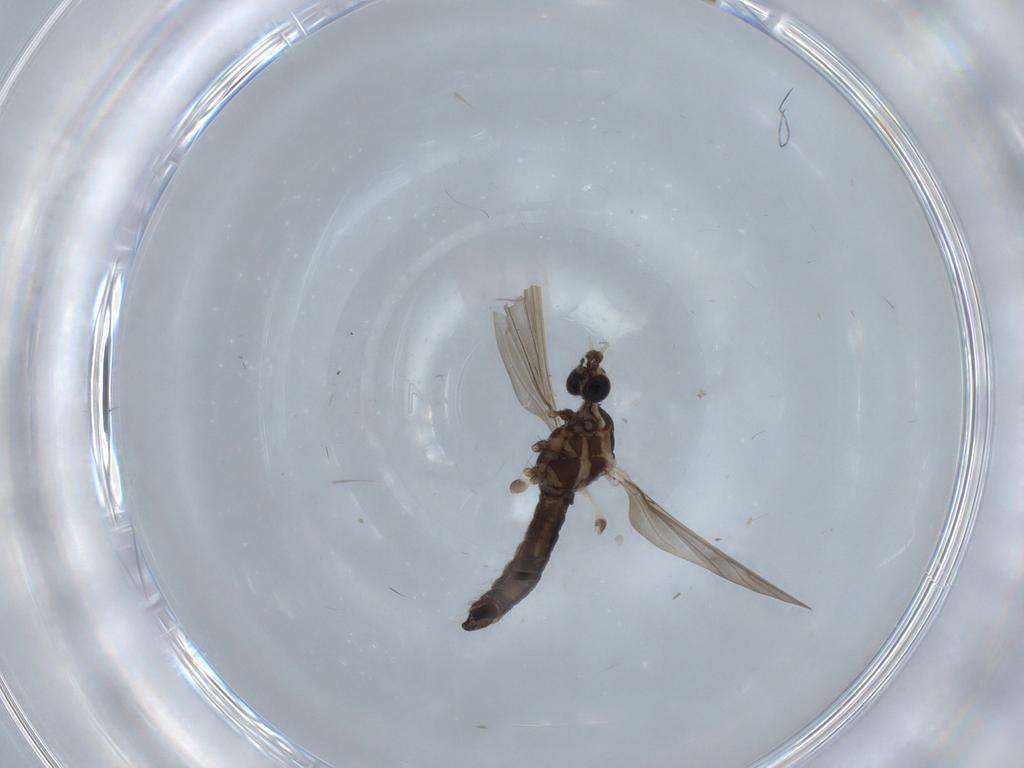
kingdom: Animalia
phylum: Arthropoda
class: Insecta
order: Diptera
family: Cecidomyiidae
